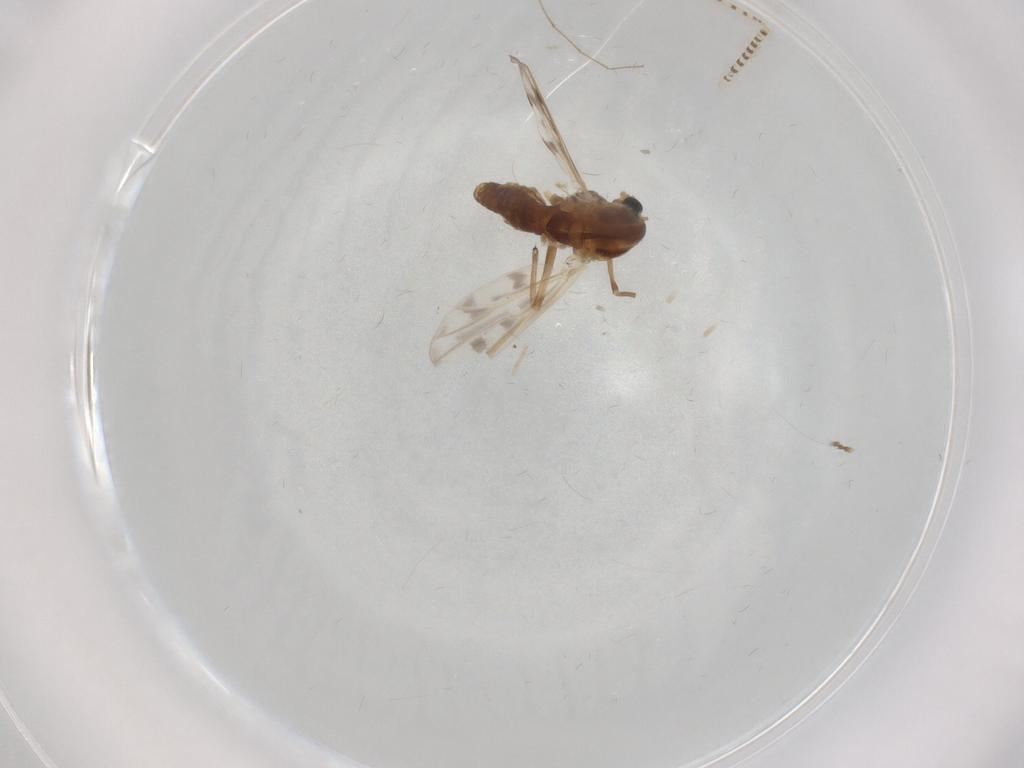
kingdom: Animalia
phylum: Arthropoda
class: Insecta
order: Diptera
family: Chironomidae
